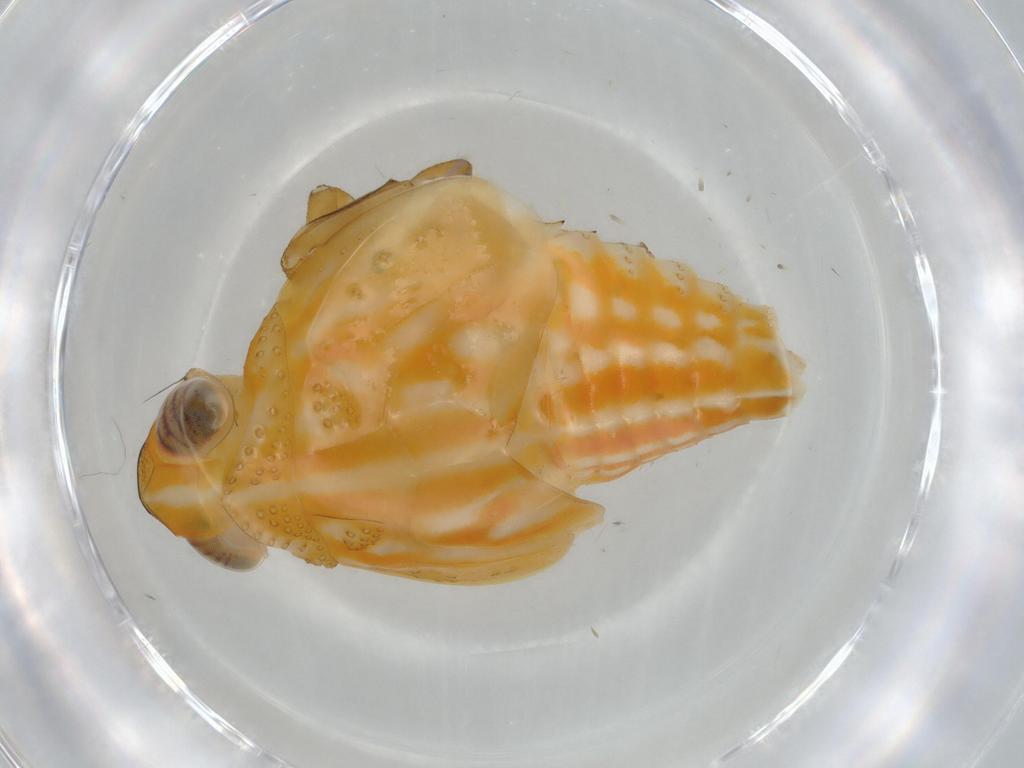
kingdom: Animalia
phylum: Arthropoda
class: Insecta
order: Hemiptera
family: Issidae
